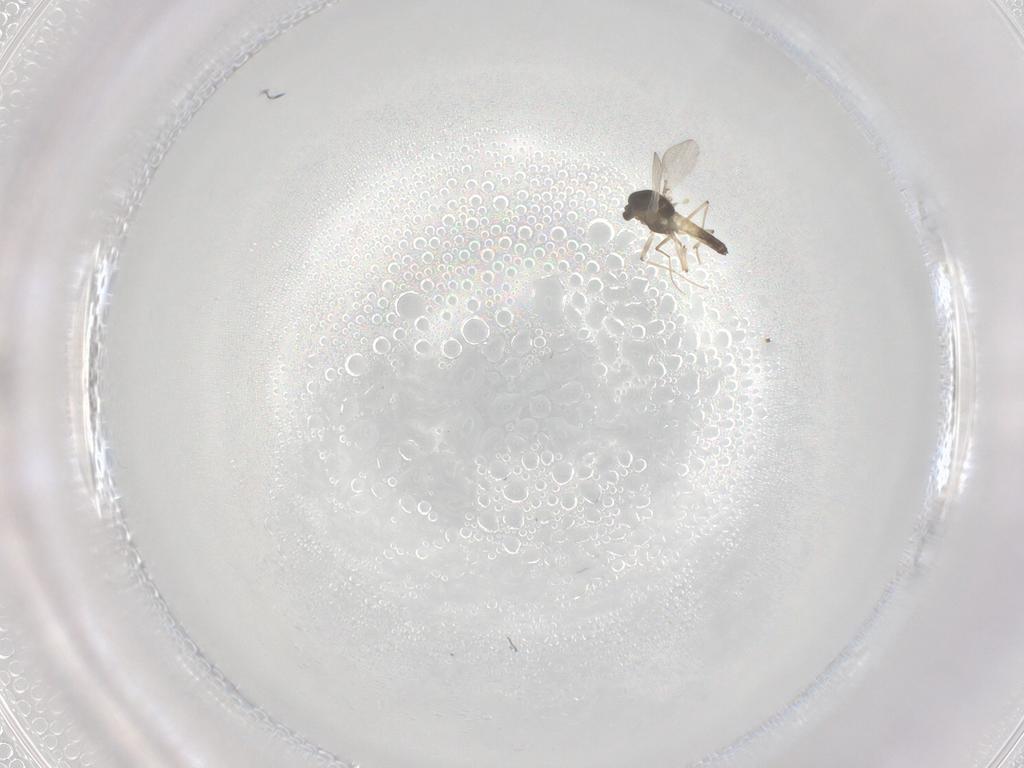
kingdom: Animalia
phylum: Arthropoda
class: Insecta
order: Diptera
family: Chironomidae
